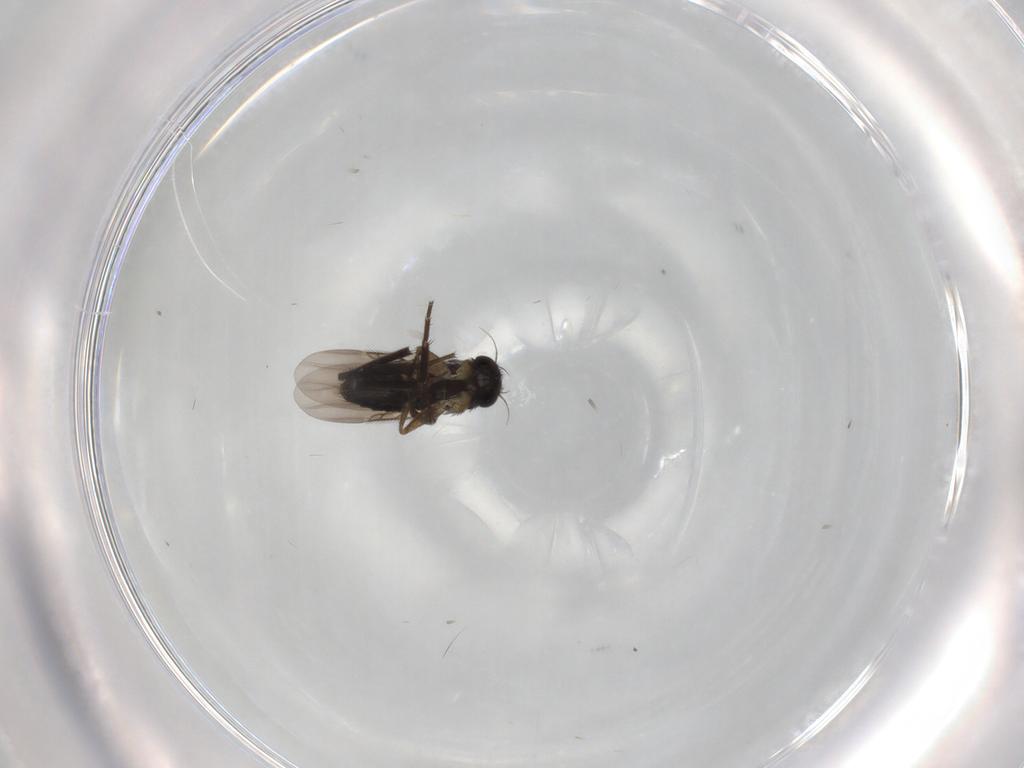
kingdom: Animalia
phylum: Arthropoda
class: Insecta
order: Diptera
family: Phoridae
